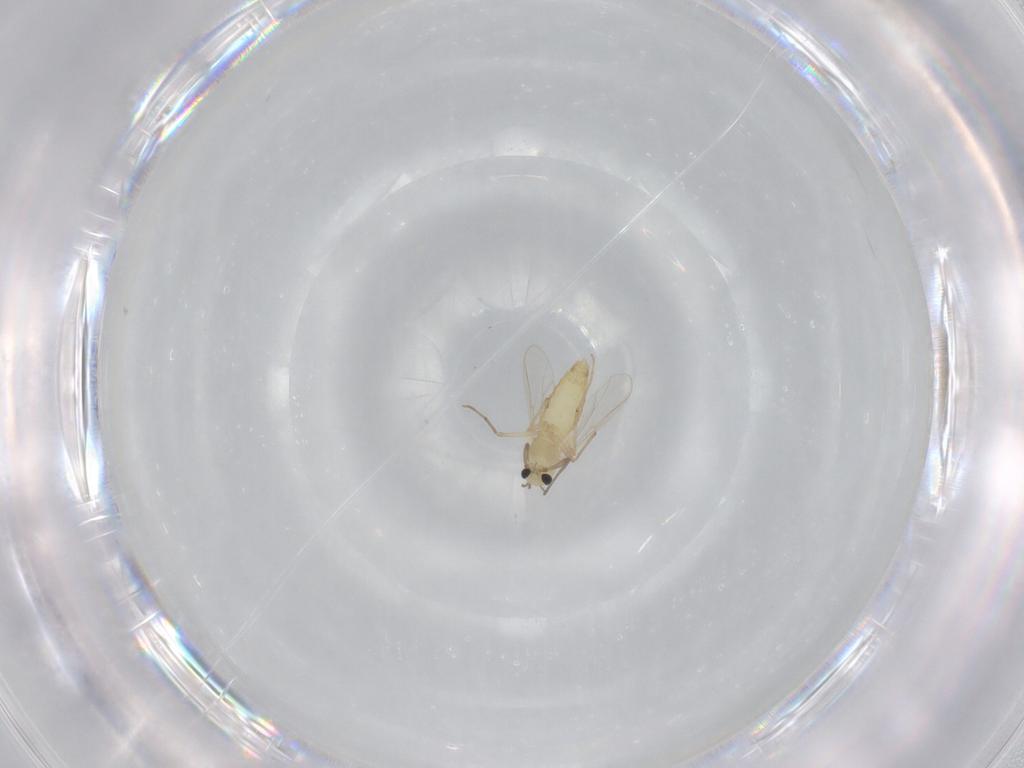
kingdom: Animalia
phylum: Arthropoda
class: Insecta
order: Diptera
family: Chironomidae
